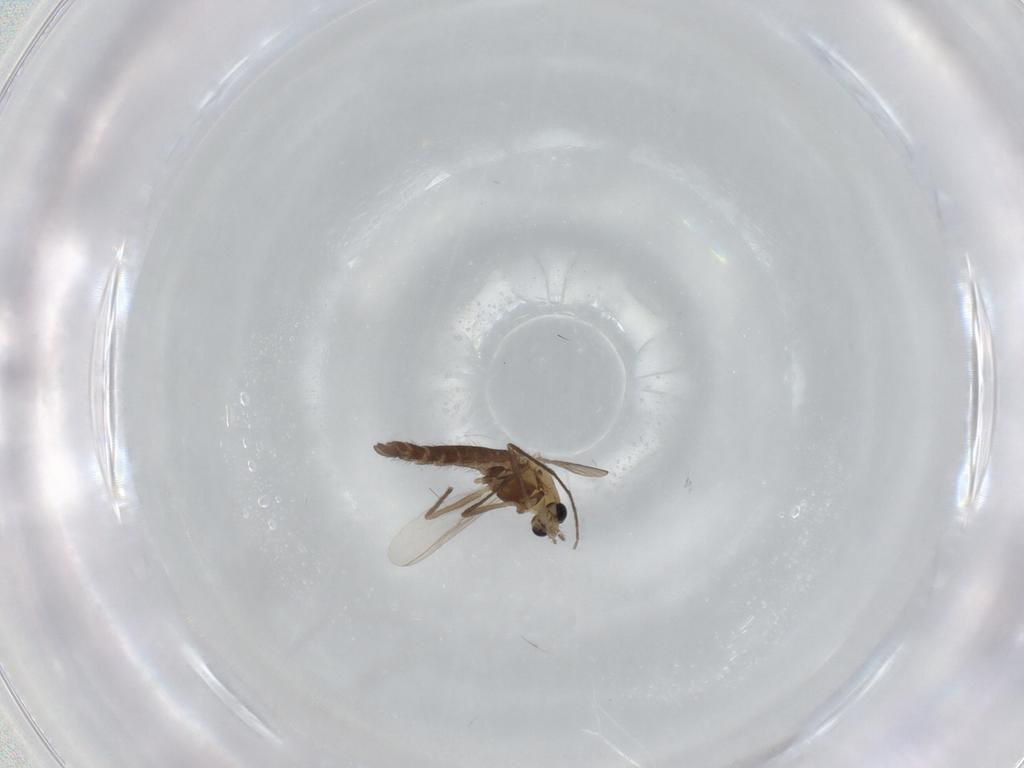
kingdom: Animalia
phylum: Arthropoda
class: Insecta
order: Diptera
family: Chironomidae
